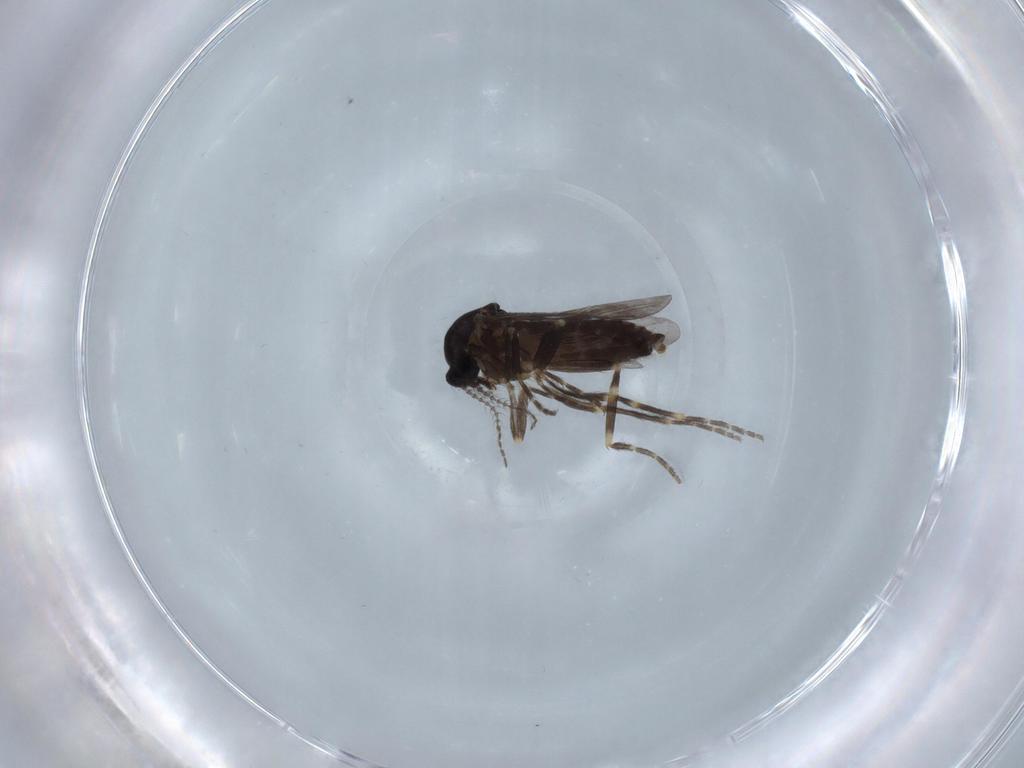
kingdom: Animalia
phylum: Arthropoda
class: Insecta
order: Diptera
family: Ceratopogonidae
